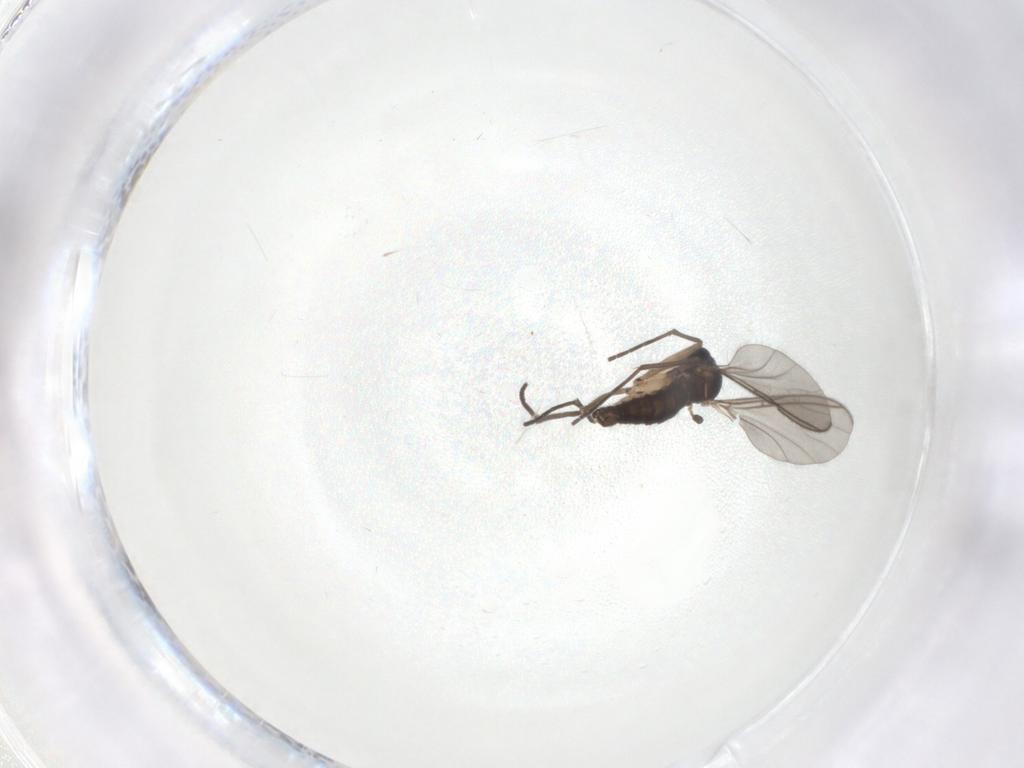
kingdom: Animalia
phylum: Arthropoda
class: Insecta
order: Diptera
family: Sciaridae
